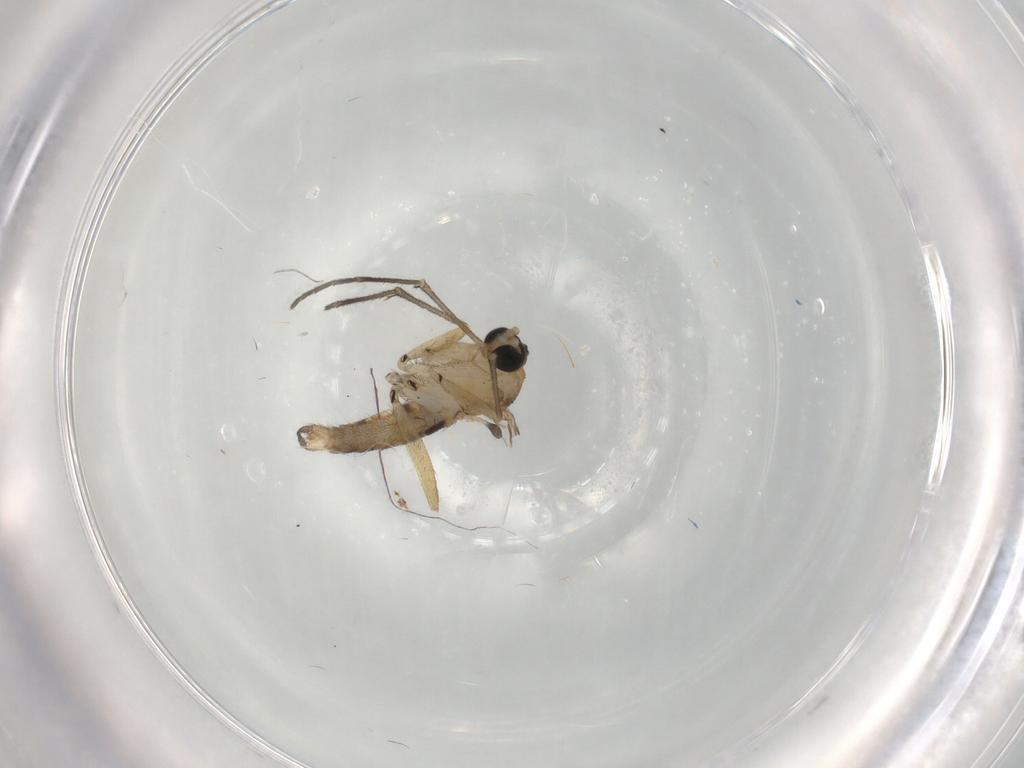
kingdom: Animalia
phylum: Arthropoda
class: Insecta
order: Diptera
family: Sciaridae
